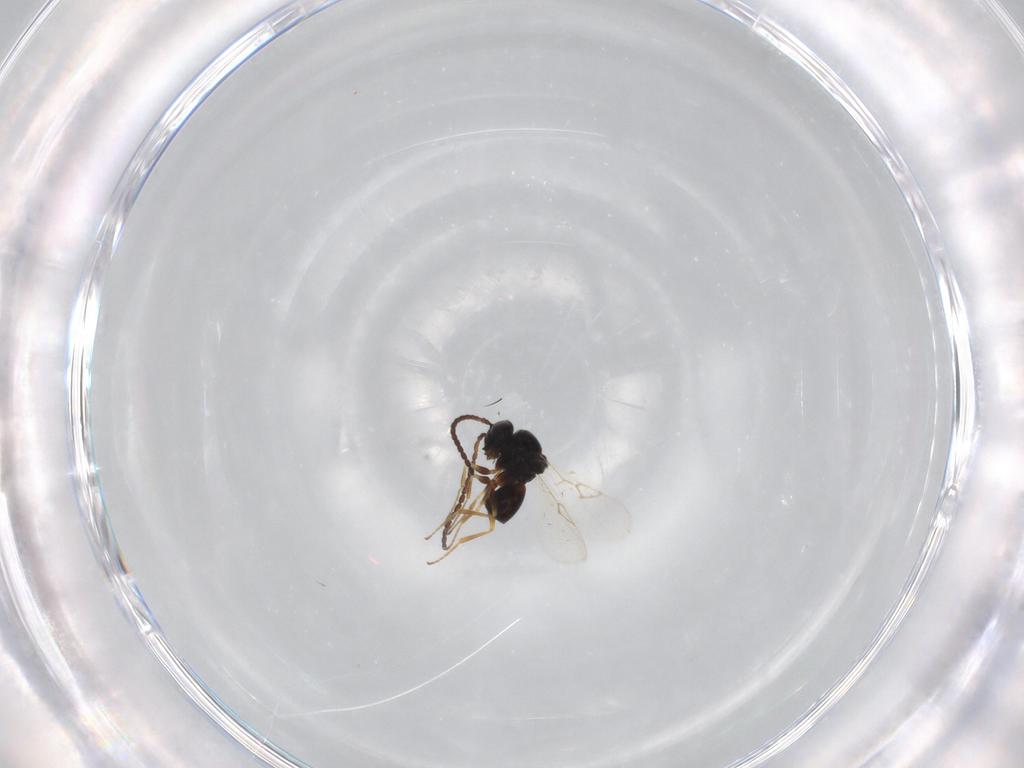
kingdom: Animalia
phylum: Arthropoda
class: Insecta
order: Hymenoptera
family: Figitidae
